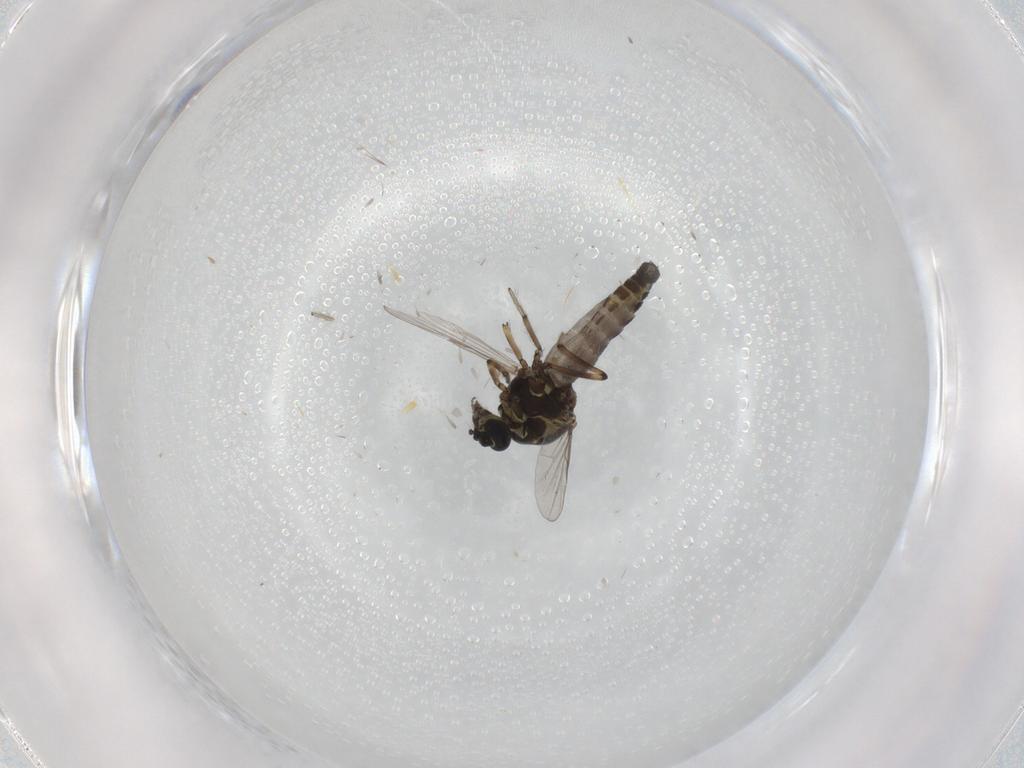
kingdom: Animalia
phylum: Arthropoda
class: Insecta
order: Diptera
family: Ceratopogonidae
